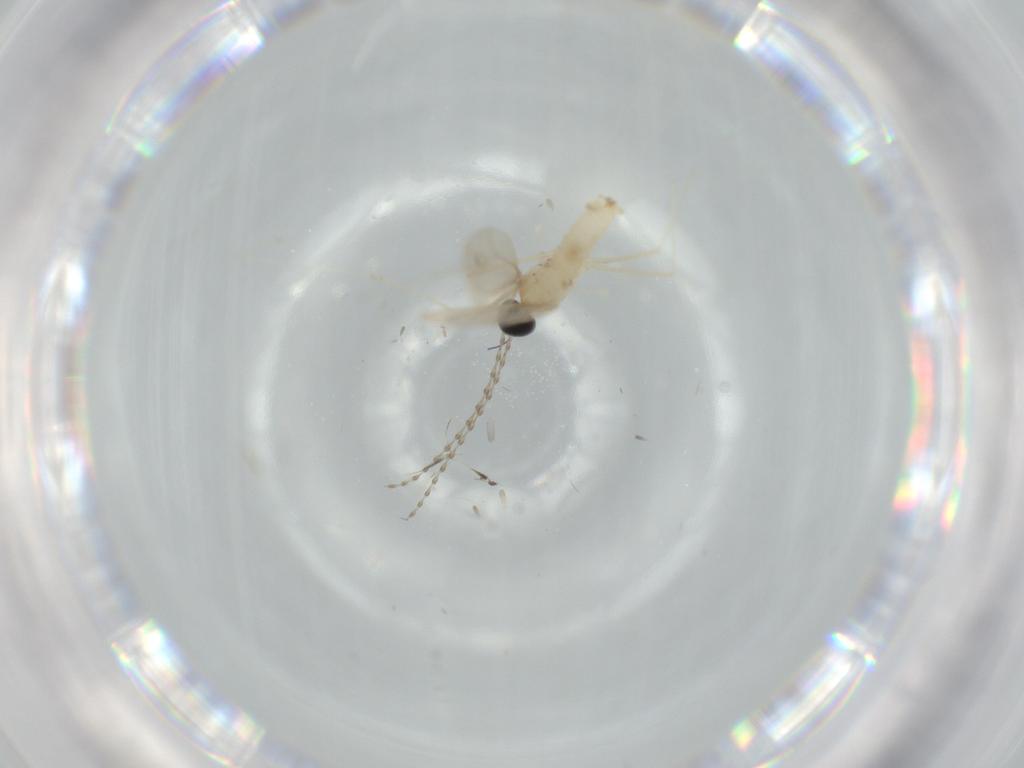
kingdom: Animalia
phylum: Arthropoda
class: Insecta
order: Diptera
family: Cecidomyiidae
